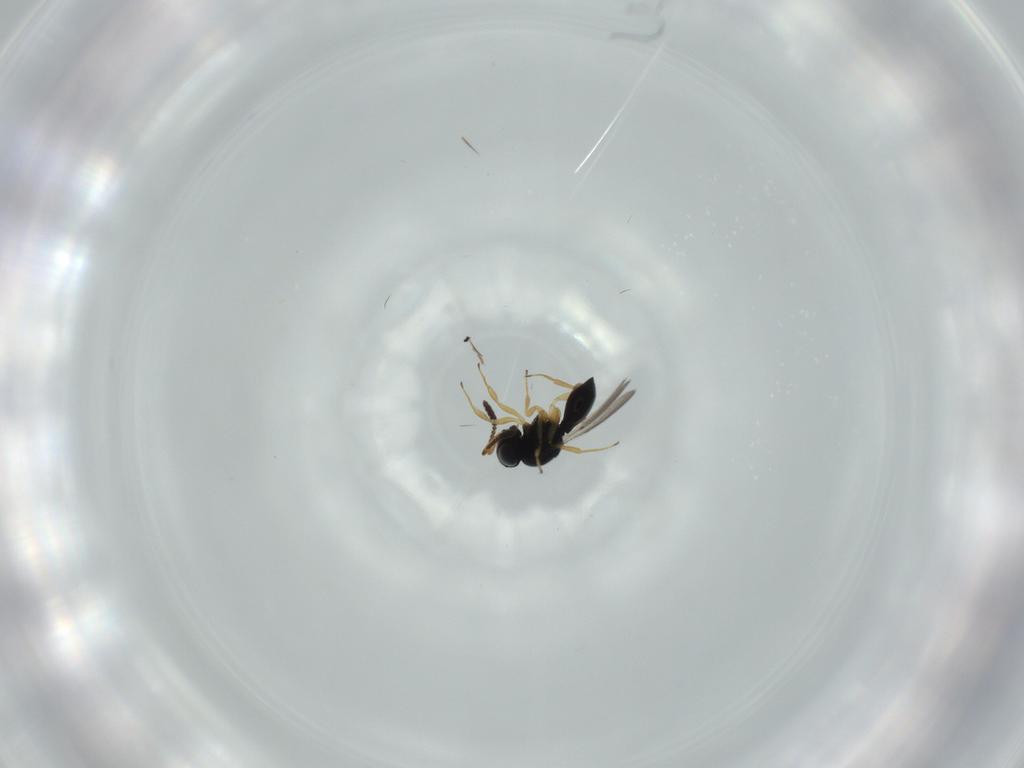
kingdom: Animalia
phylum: Arthropoda
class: Insecta
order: Hymenoptera
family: Scelionidae
